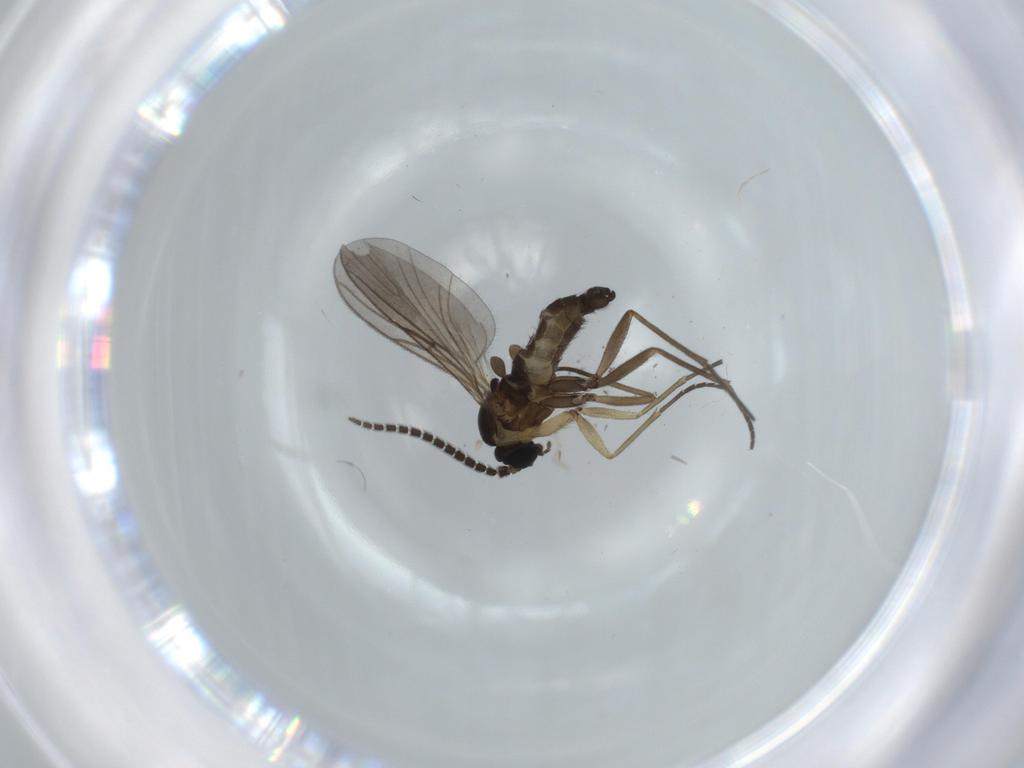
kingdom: Animalia
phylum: Arthropoda
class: Insecta
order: Diptera
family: Sciaridae
